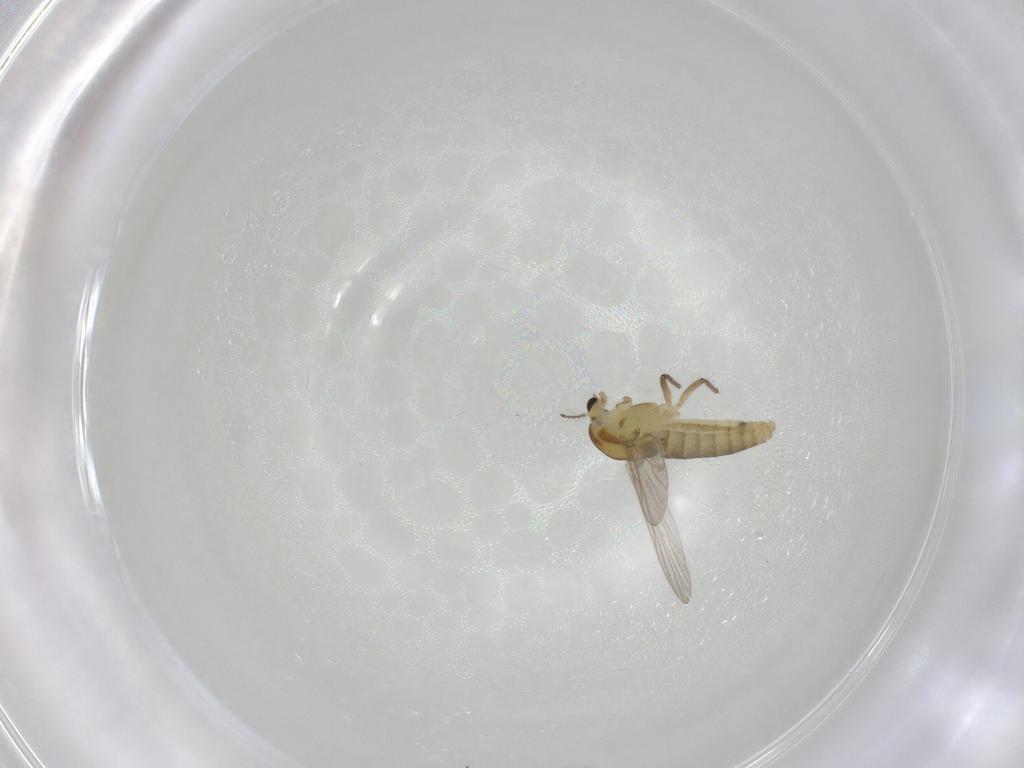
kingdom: Animalia
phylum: Arthropoda
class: Insecta
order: Diptera
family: Chironomidae
